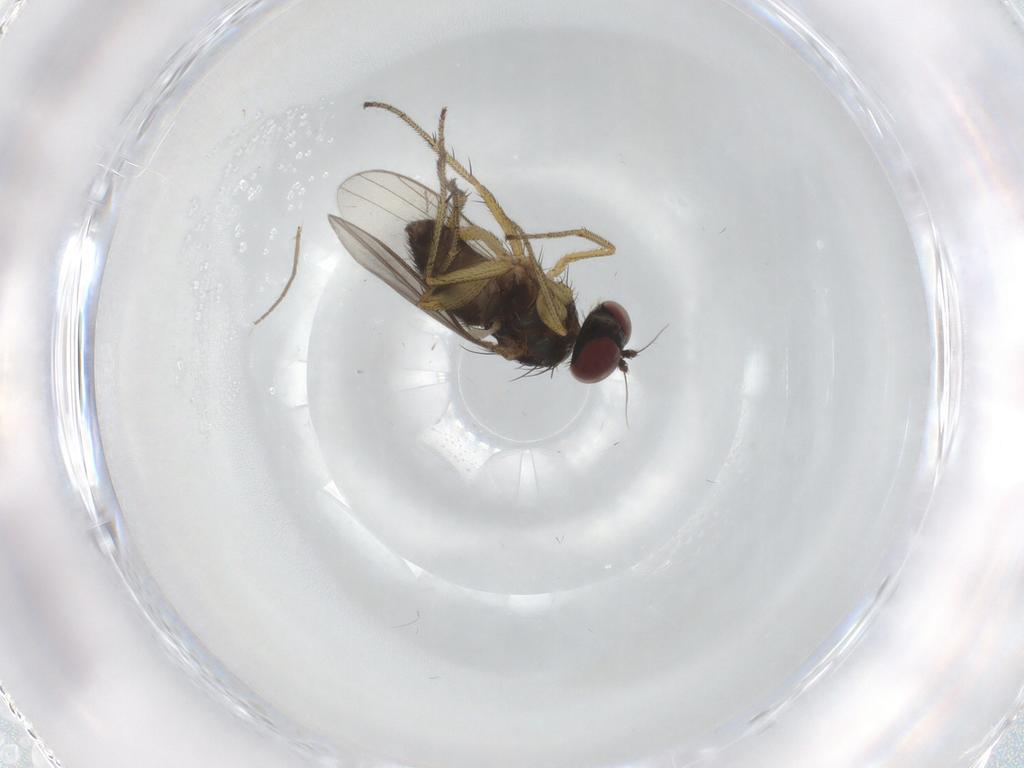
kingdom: Animalia
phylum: Arthropoda
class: Insecta
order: Diptera
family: Chironomidae
